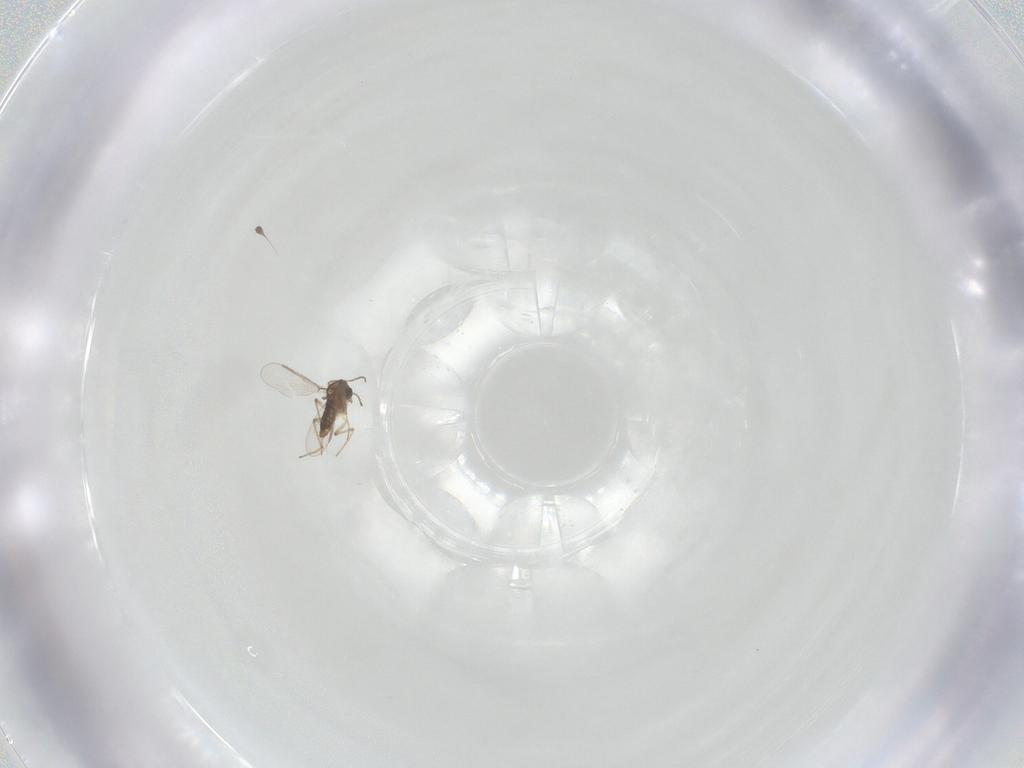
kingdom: Animalia
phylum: Arthropoda
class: Insecta
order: Diptera
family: Chironomidae
